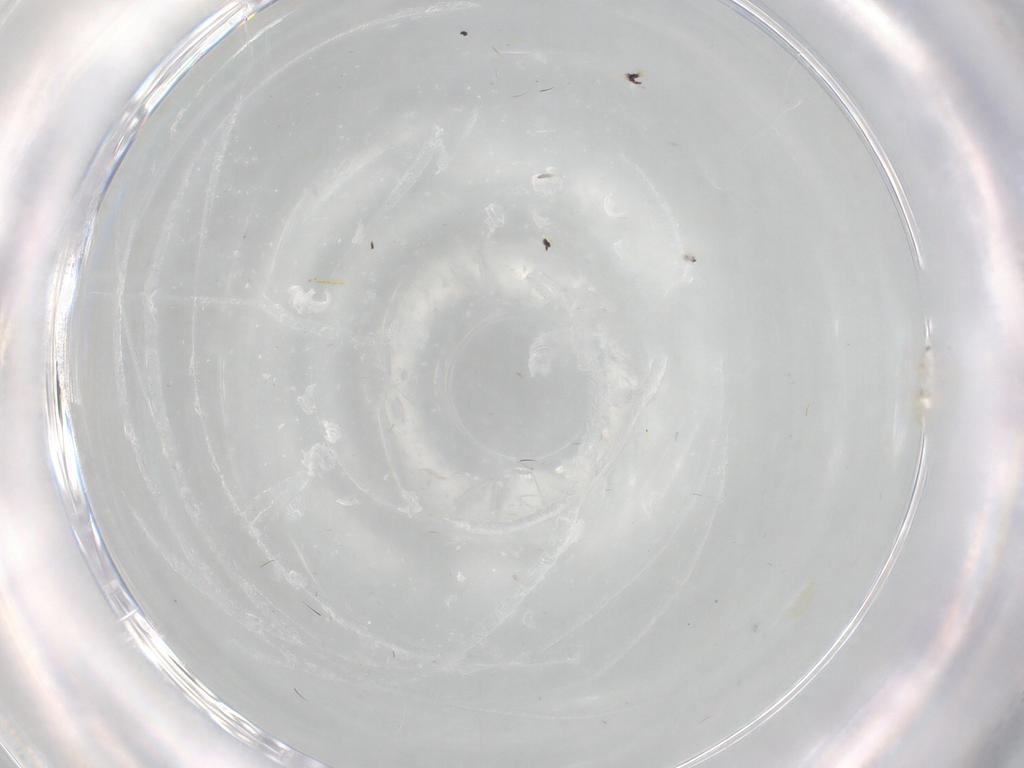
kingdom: Animalia
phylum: Arthropoda
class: Insecta
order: Hemiptera
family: Aleyrodidae
